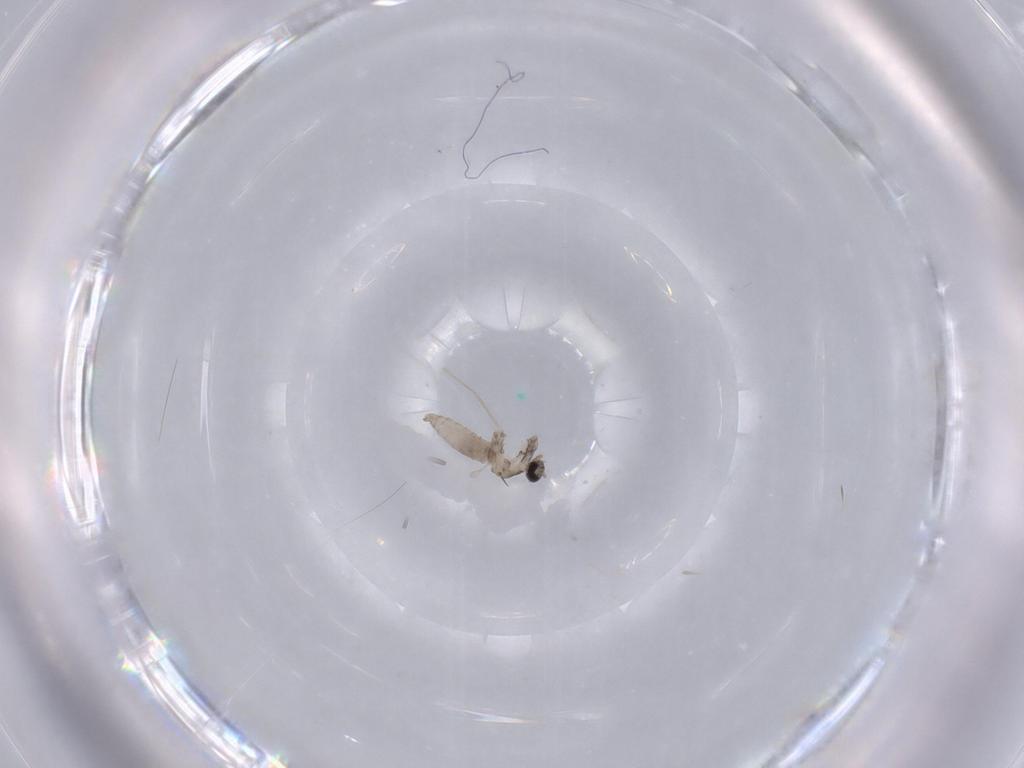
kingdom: Animalia
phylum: Arthropoda
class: Insecta
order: Diptera
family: Cecidomyiidae
